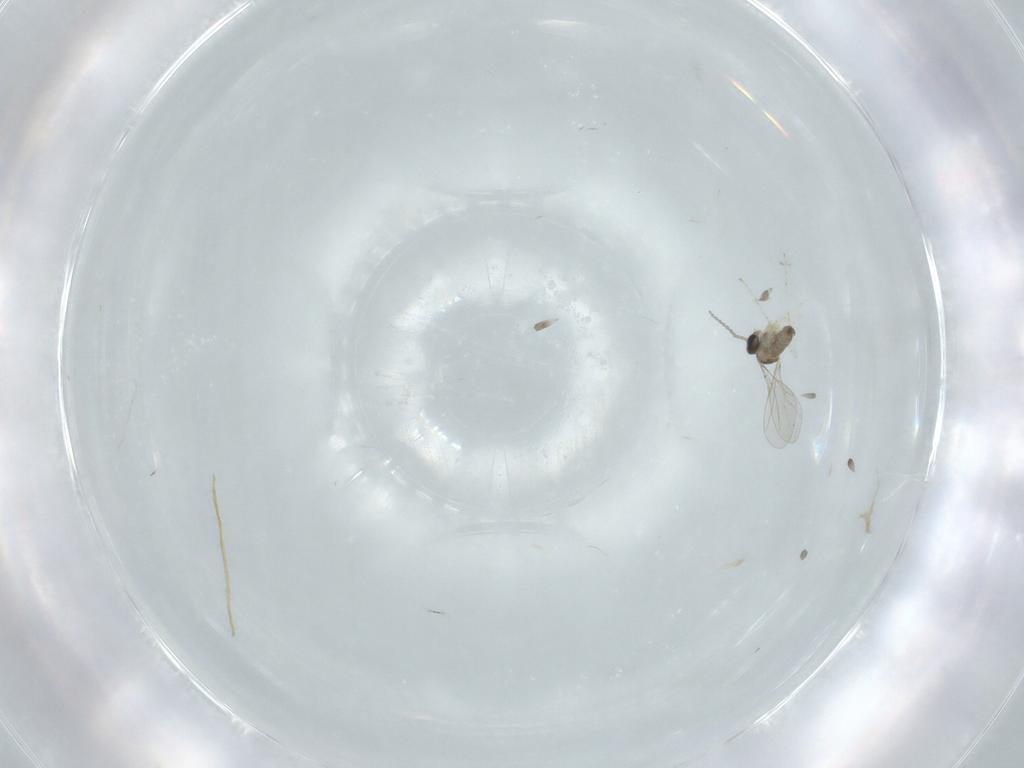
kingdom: Animalia
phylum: Arthropoda
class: Insecta
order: Diptera
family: Cecidomyiidae
